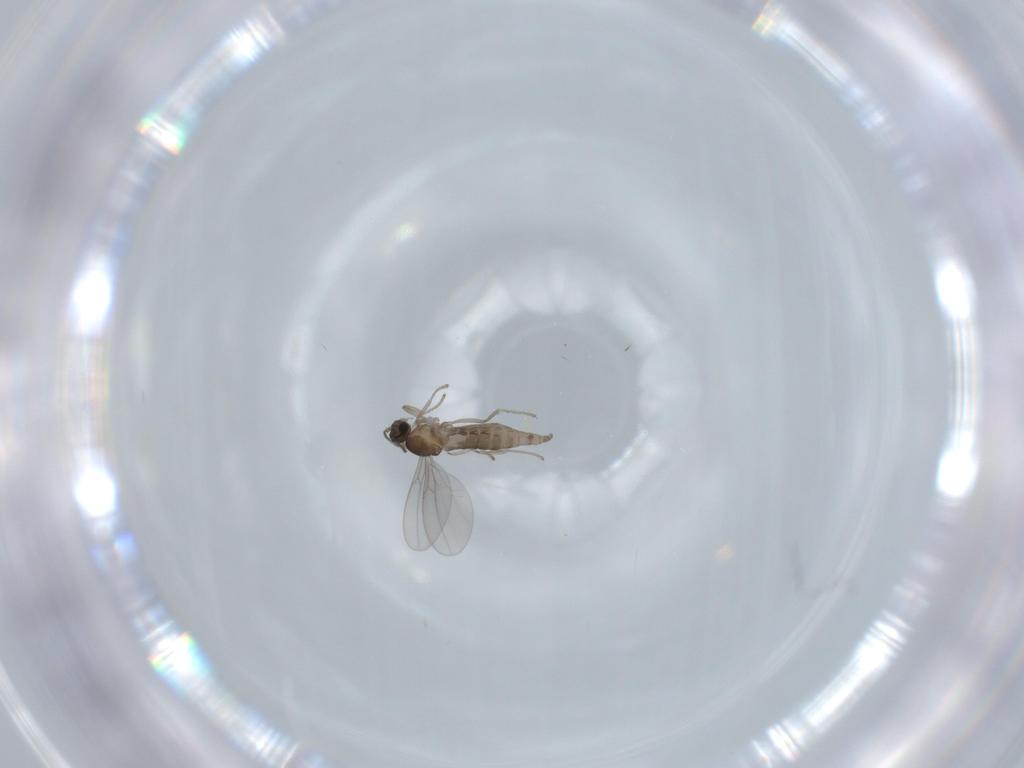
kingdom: Animalia
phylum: Arthropoda
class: Insecta
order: Diptera
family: Cecidomyiidae
